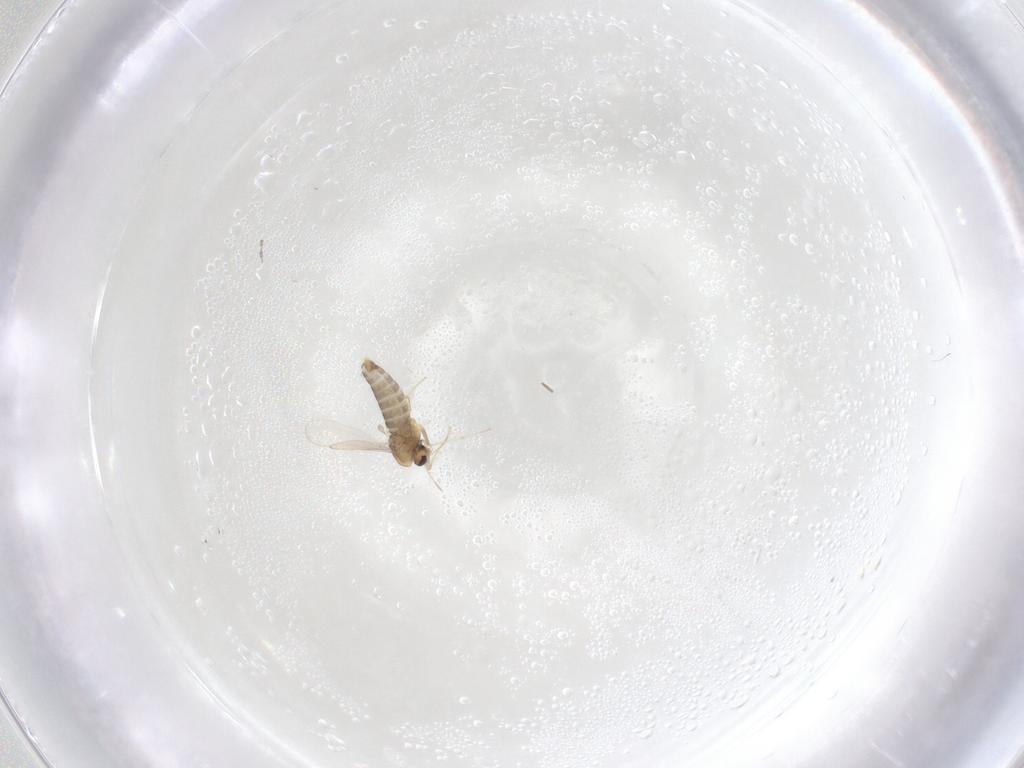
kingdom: Animalia
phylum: Arthropoda
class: Insecta
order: Diptera
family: Chironomidae
